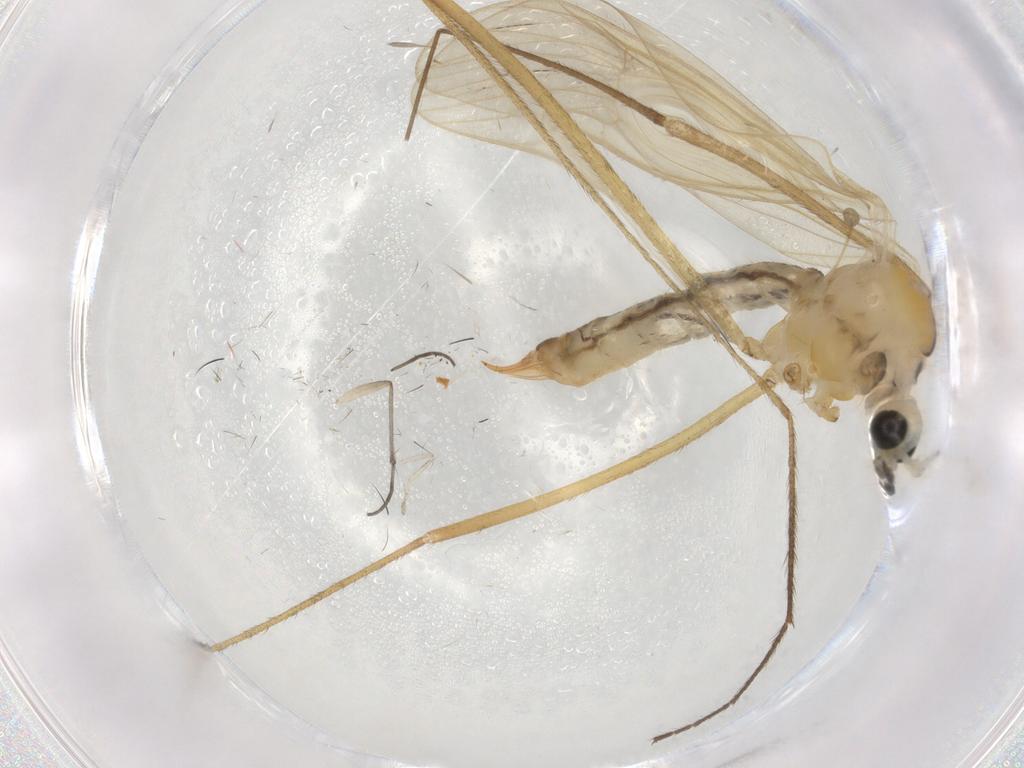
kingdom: Animalia
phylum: Arthropoda
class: Insecta
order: Diptera
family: Limoniidae
